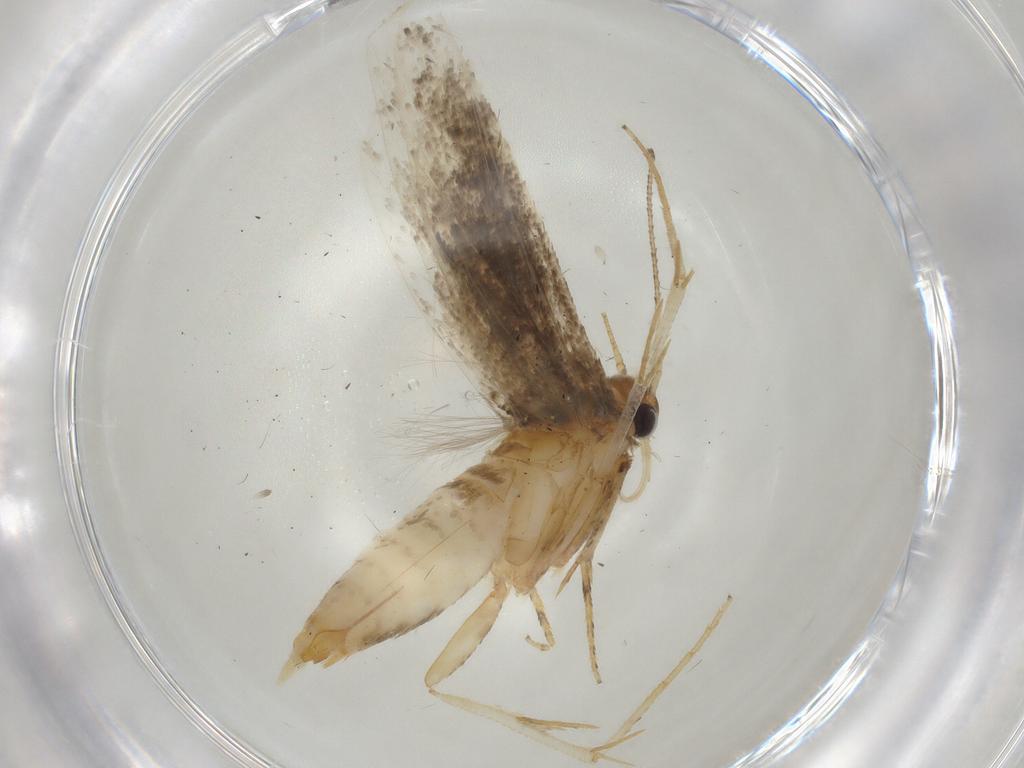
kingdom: Animalia
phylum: Arthropoda
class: Insecta
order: Lepidoptera
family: Gelechiidae
